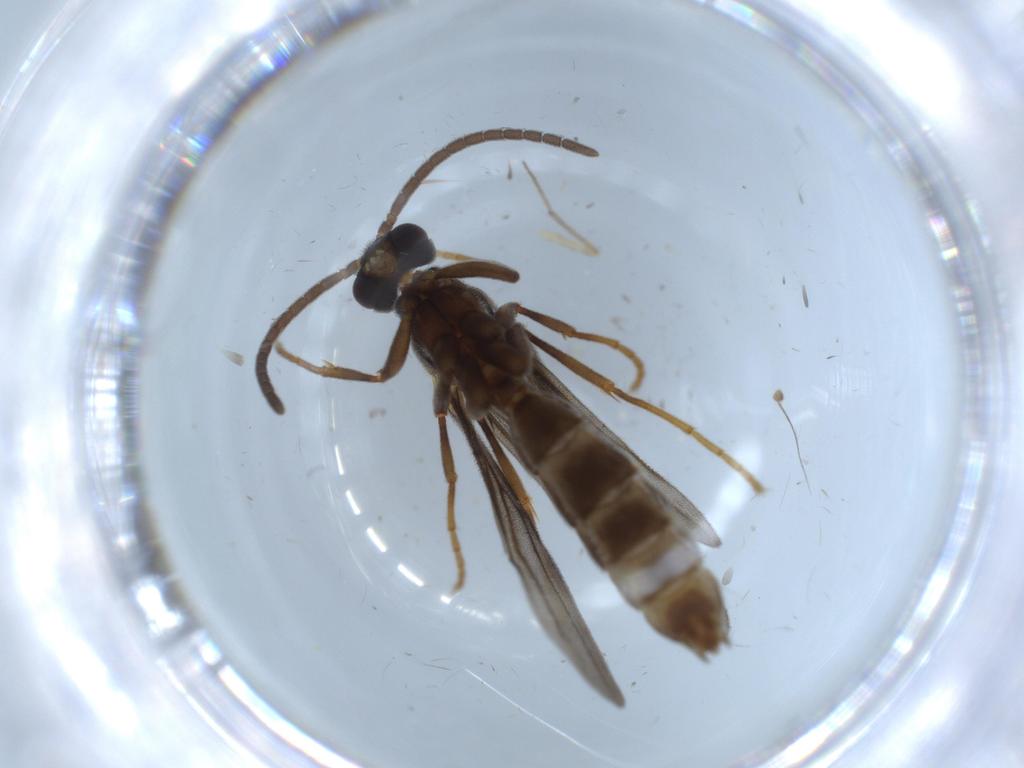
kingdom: Animalia
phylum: Arthropoda
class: Insecta
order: Hymenoptera
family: Formicidae
